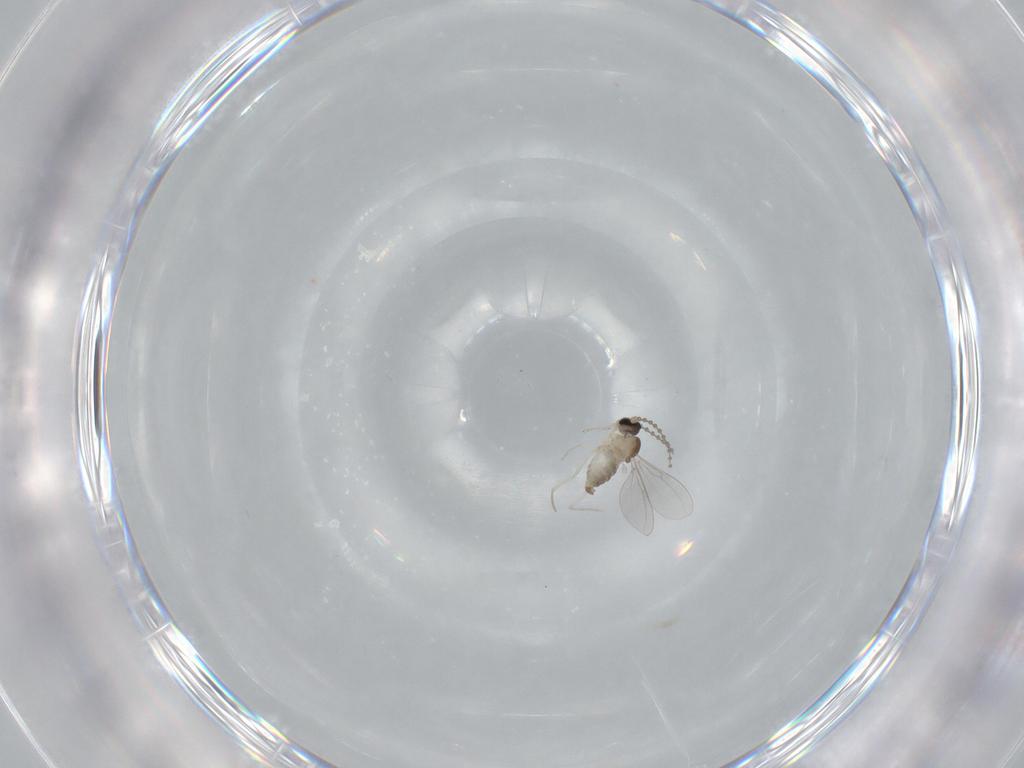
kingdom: Animalia
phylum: Arthropoda
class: Insecta
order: Diptera
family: Cecidomyiidae
